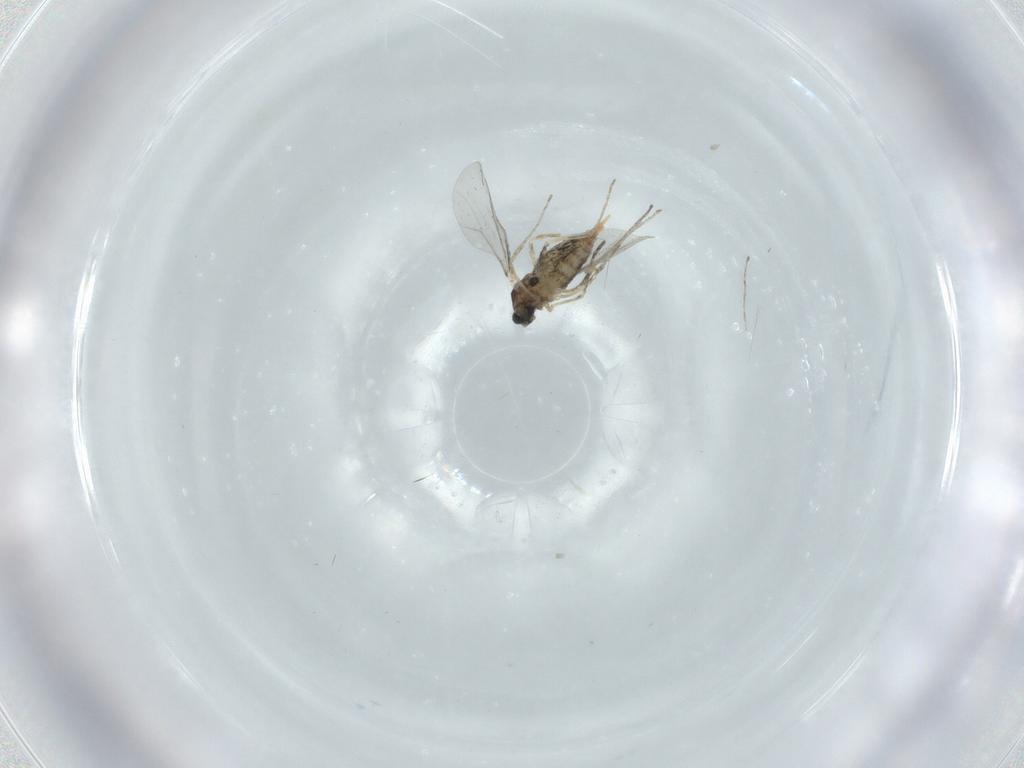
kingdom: Animalia
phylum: Arthropoda
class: Insecta
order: Diptera
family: Cecidomyiidae
